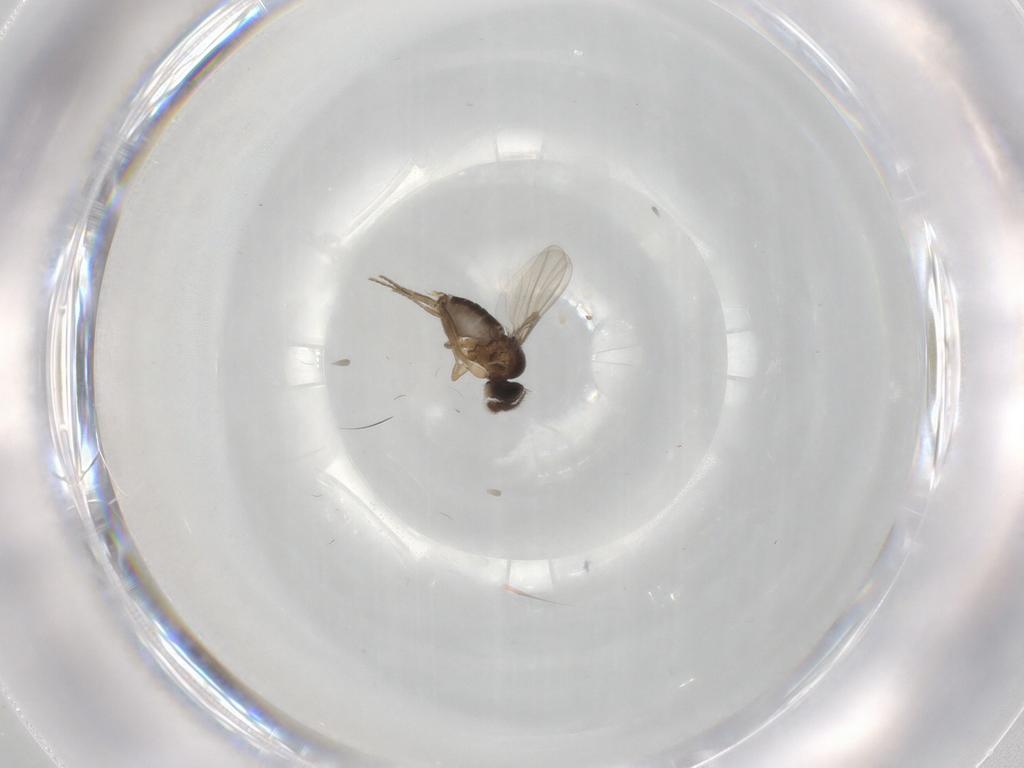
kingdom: Animalia
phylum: Arthropoda
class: Insecta
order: Diptera
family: Phoridae
